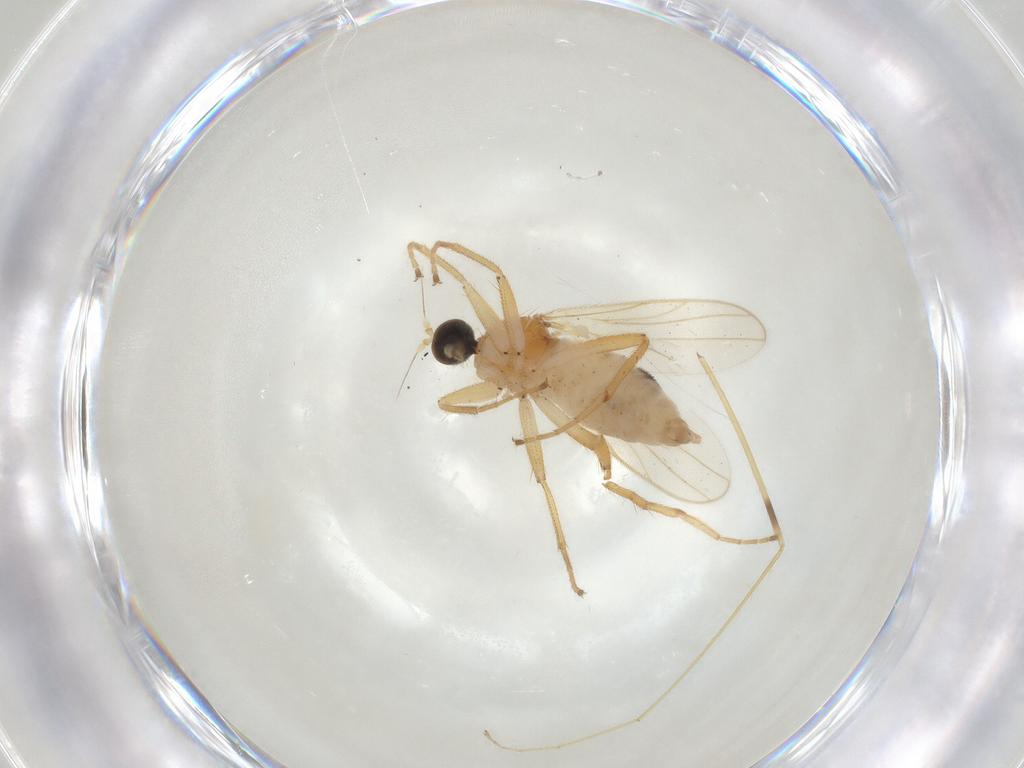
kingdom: Animalia
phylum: Arthropoda
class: Insecta
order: Diptera
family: Hybotidae
